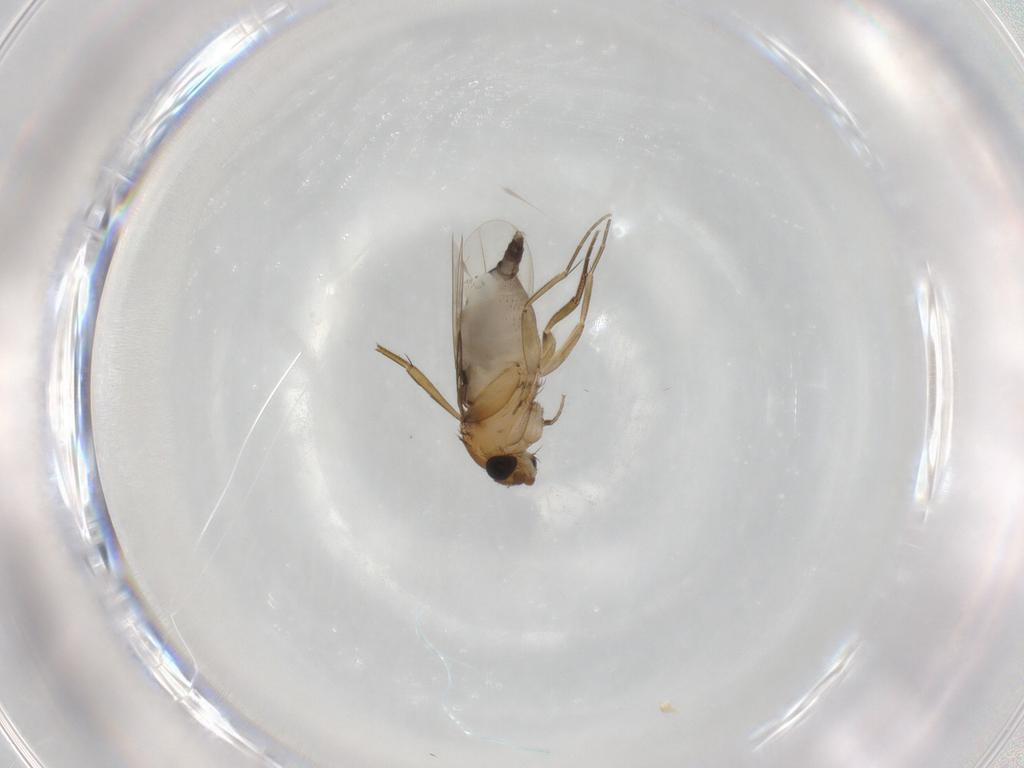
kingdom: Animalia
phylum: Arthropoda
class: Insecta
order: Diptera
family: Phoridae
